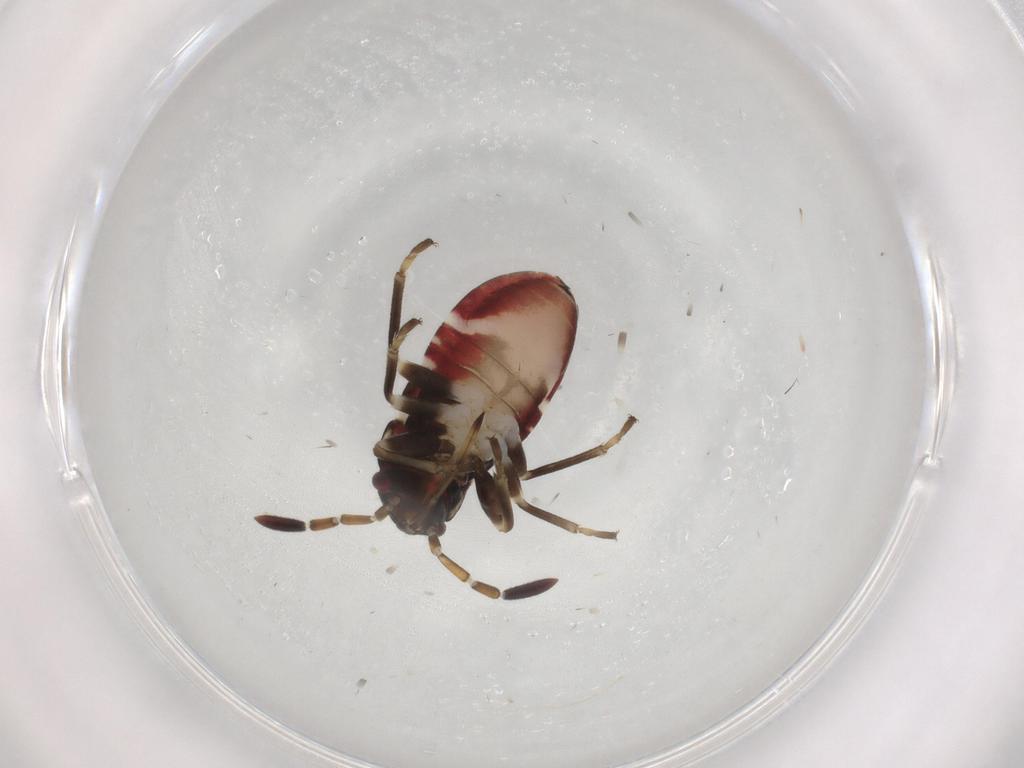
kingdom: Animalia
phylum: Arthropoda
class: Insecta
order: Hemiptera
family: Rhyparochromidae
